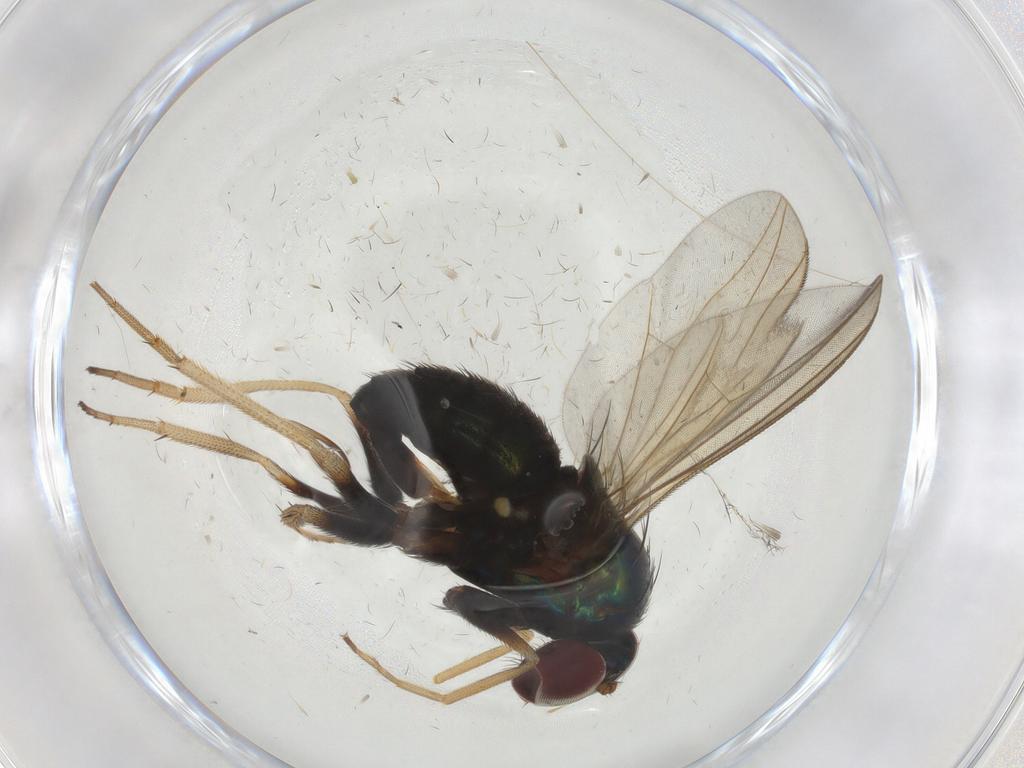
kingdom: Animalia
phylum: Arthropoda
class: Insecta
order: Diptera
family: Dolichopodidae
